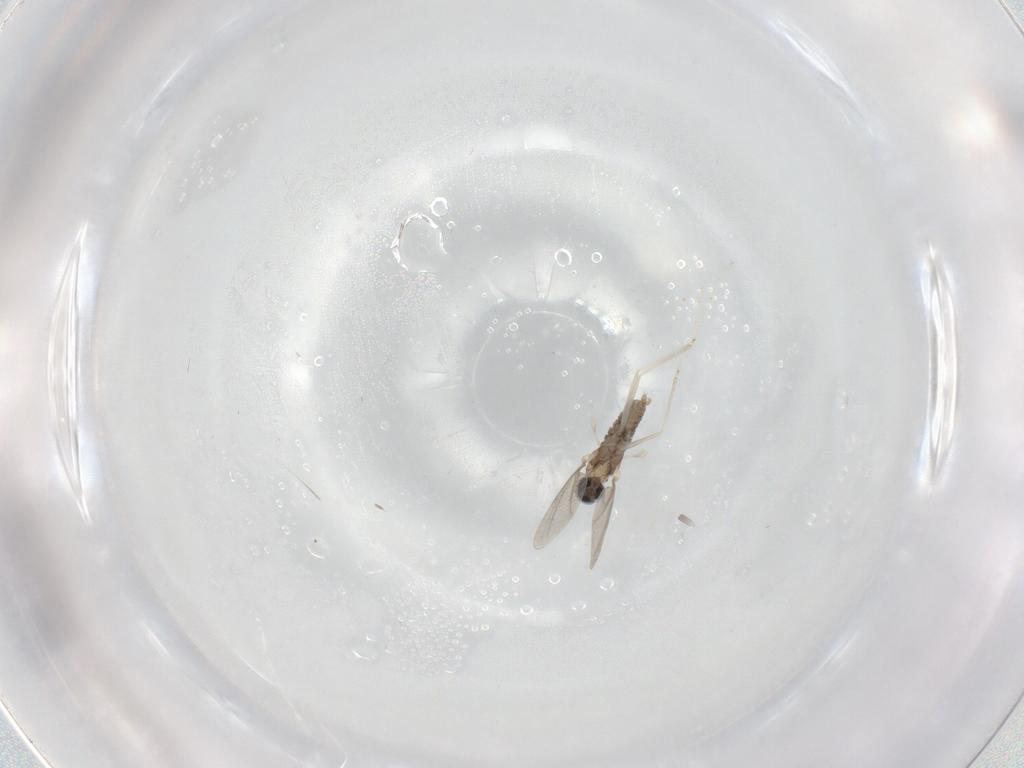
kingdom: Animalia
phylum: Arthropoda
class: Insecta
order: Diptera
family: Cecidomyiidae
